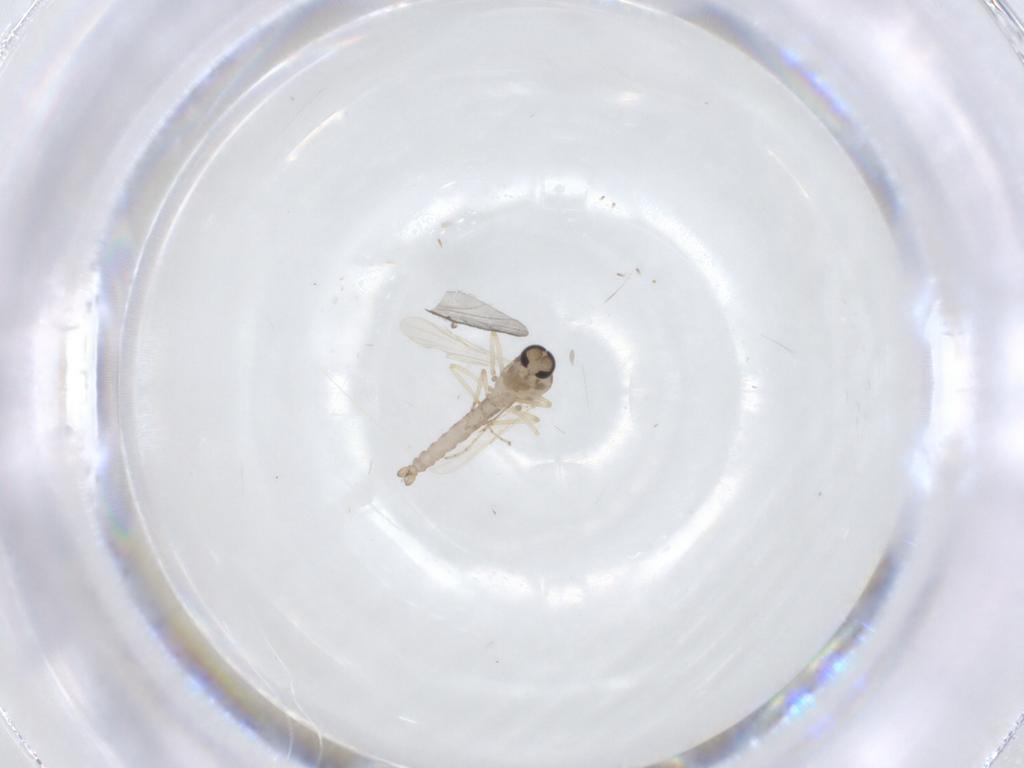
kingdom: Animalia
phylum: Arthropoda
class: Insecta
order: Diptera
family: Ceratopogonidae
